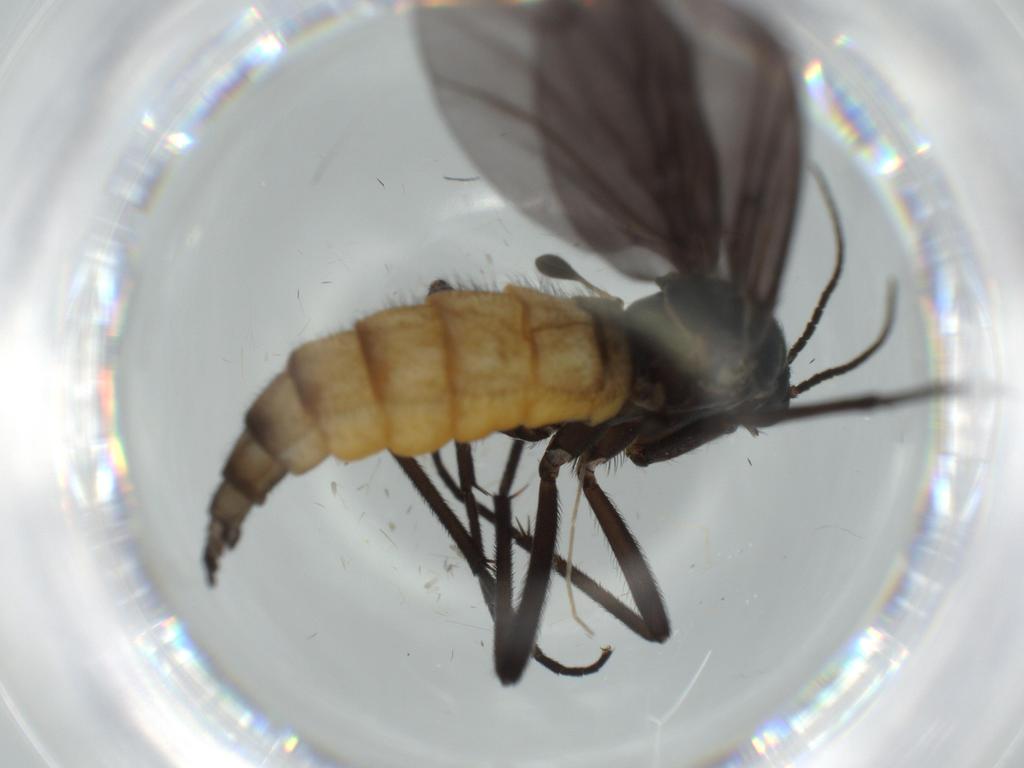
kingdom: Animalia
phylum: Arthropoda
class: Insecta
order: Diptera
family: Chironomidae
